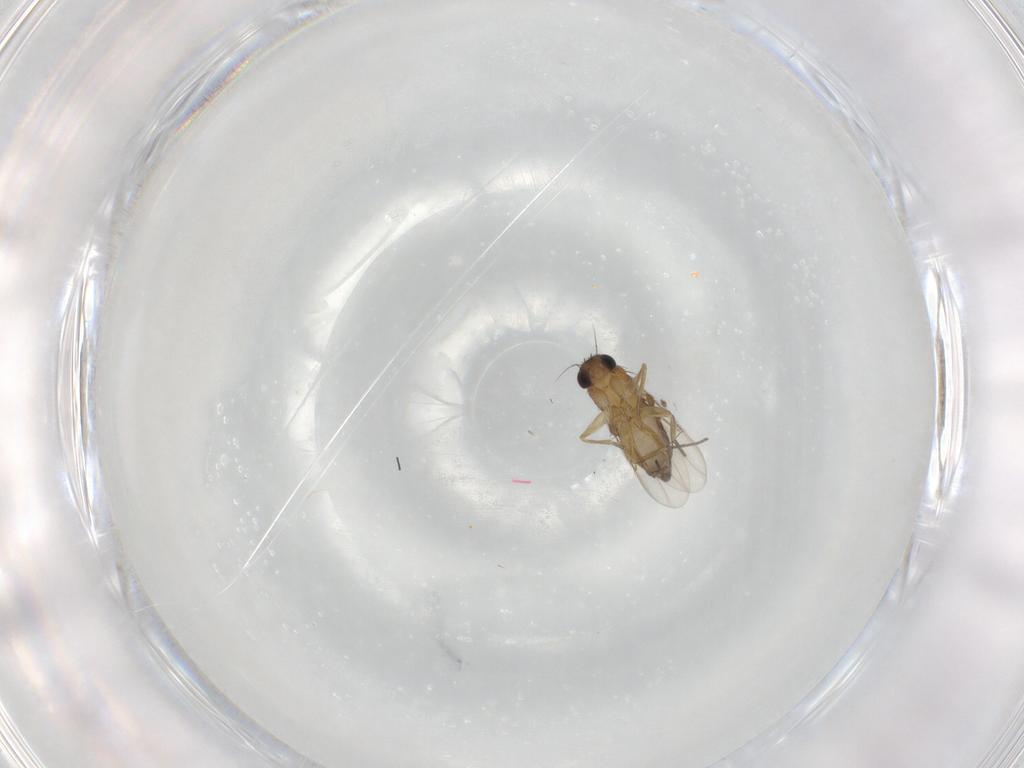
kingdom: Animalia
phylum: Arthropoda
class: Insecta
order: Diptera
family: Phoridae
